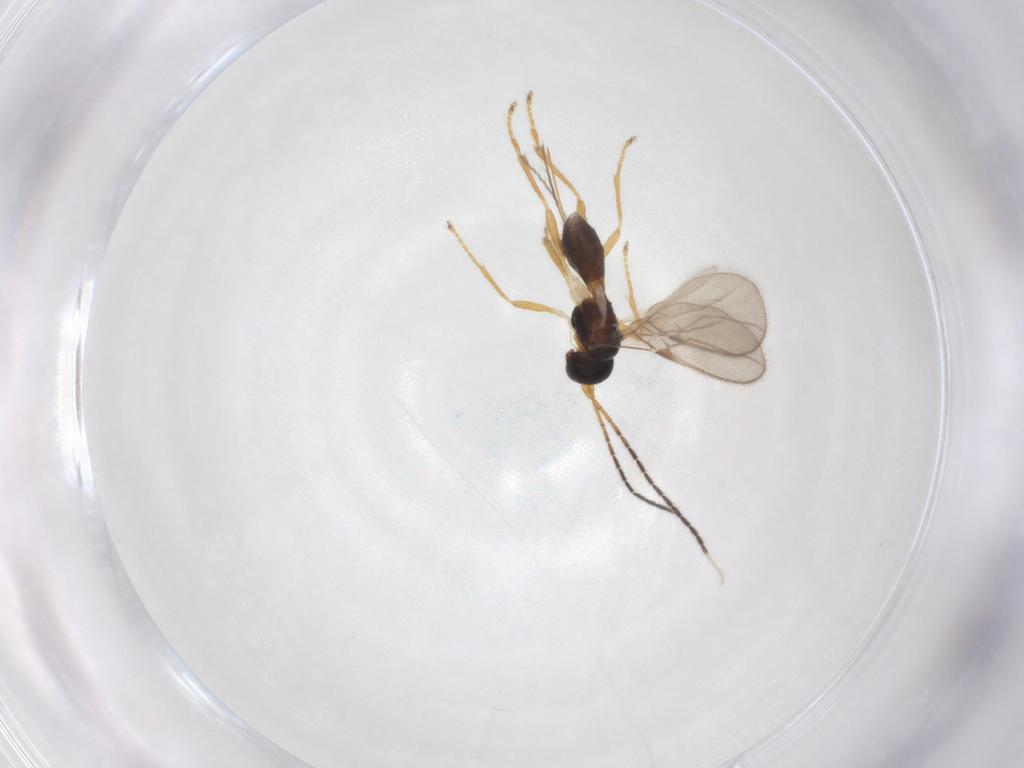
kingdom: Animalia
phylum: Arthropoda
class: Insecta
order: Hymenoptera
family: Braconidae
